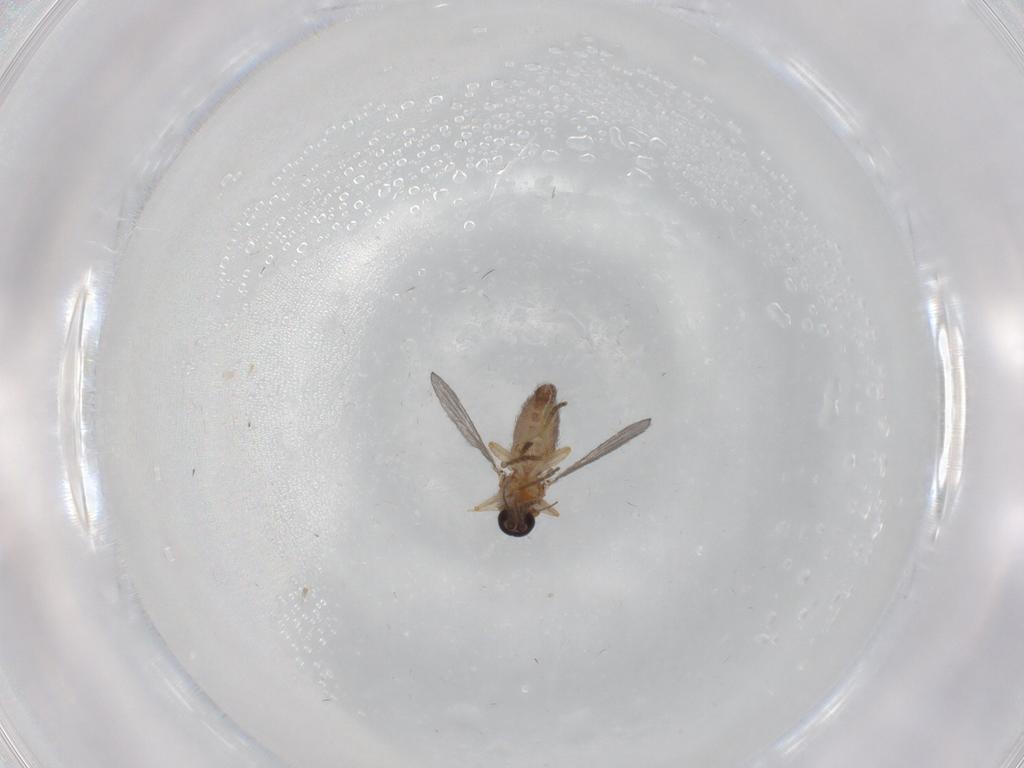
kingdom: Animalia
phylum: Arthropoda
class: Insecta
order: Diptera
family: Ceratopogonidae
